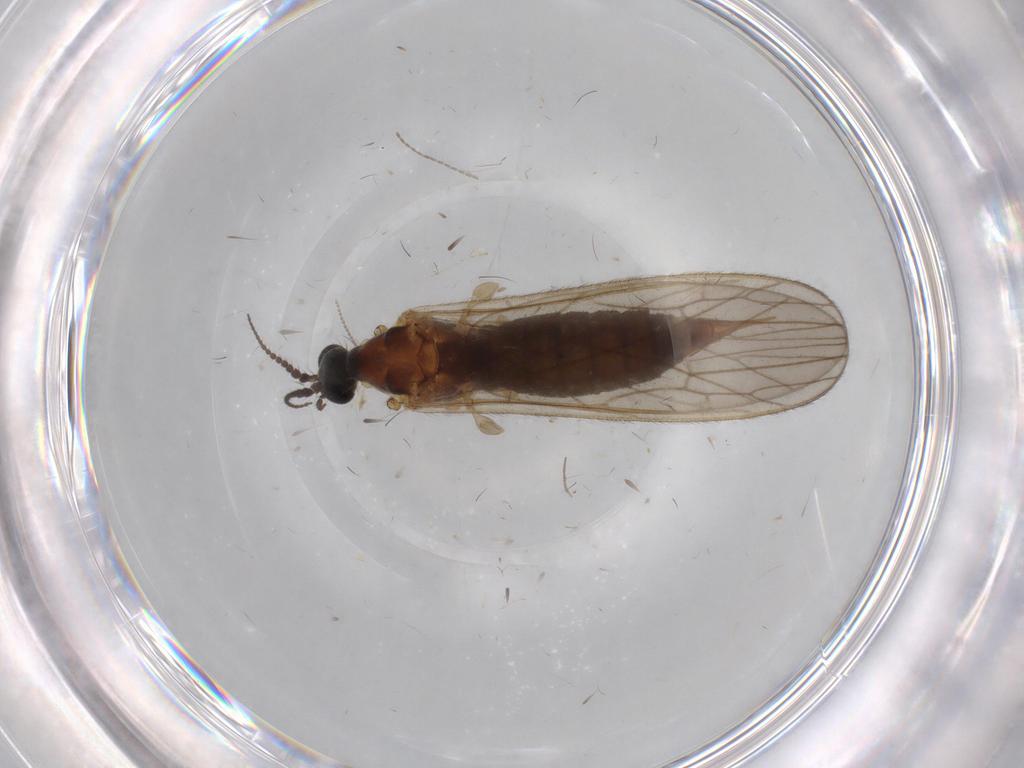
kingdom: Animalia
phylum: Arthropoda
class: Insecta
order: Diptera
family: Agromyzidae
